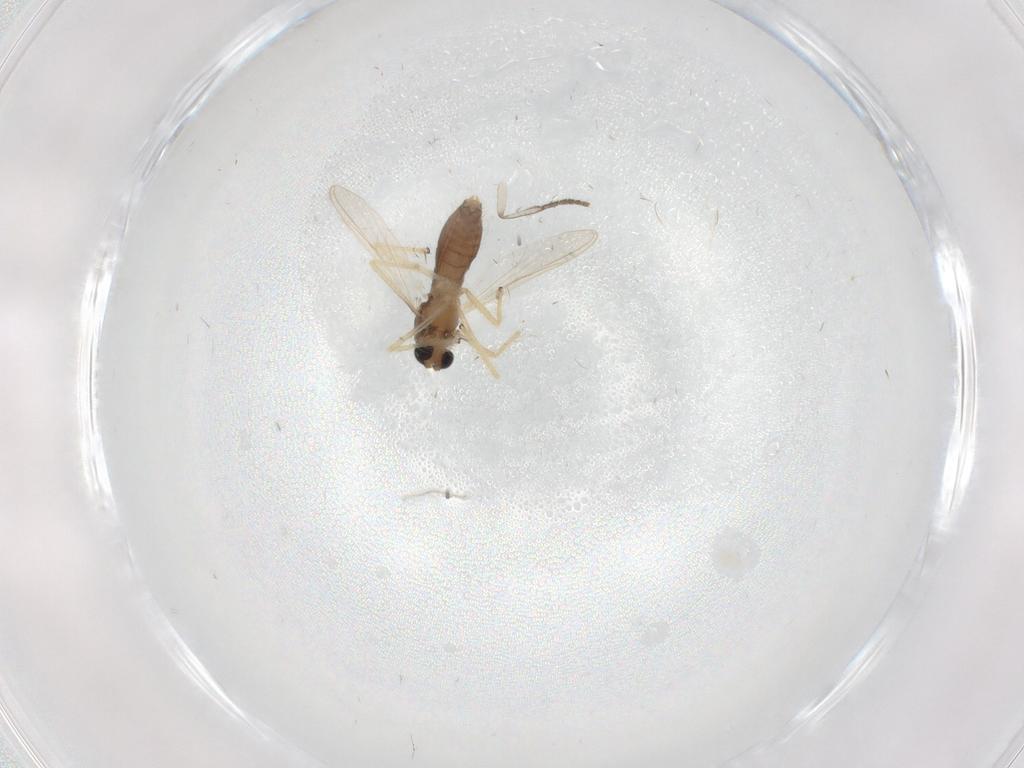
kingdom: Animalia
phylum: Arthropoda
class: Insecta
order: Diptera
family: Chironomidae
